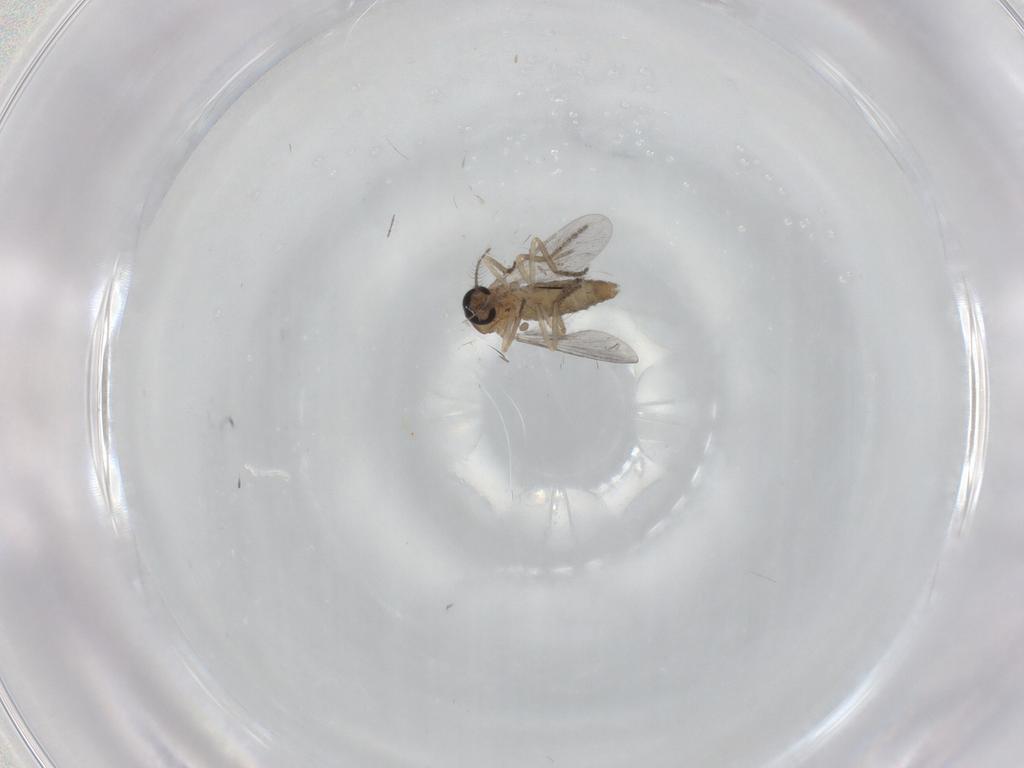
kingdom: Animalia
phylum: Arthropoda
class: Insecta
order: Diptera
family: Ceratopogonidae
